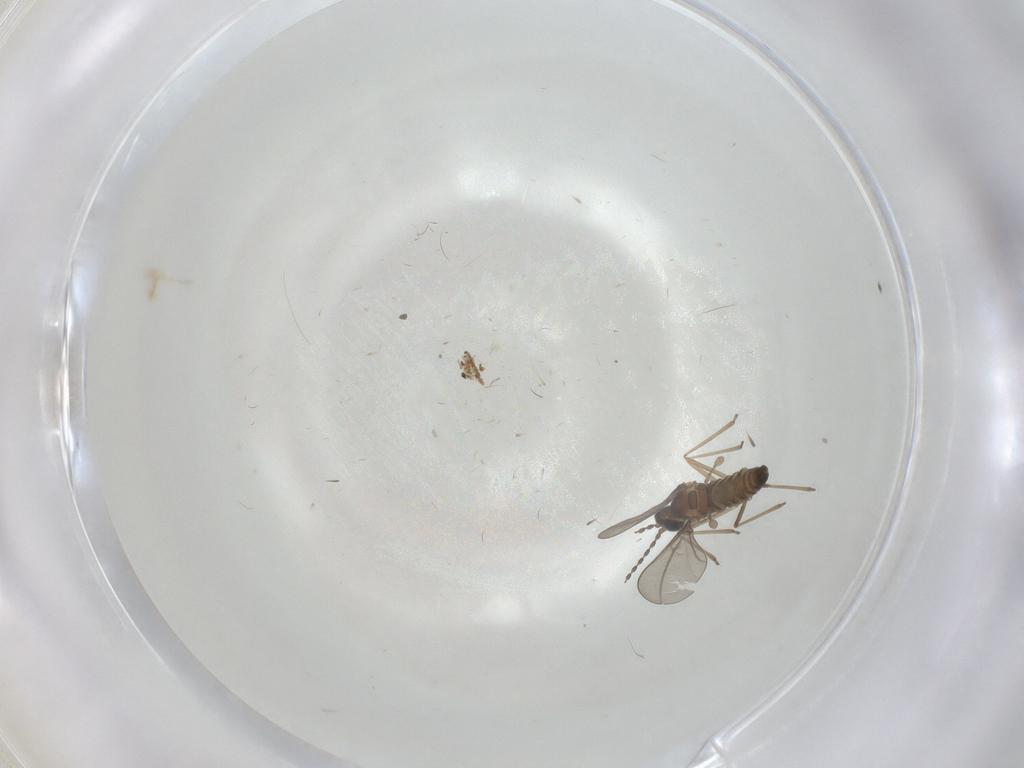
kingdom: Animalia
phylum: Arthropoda
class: Insecta
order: Diptera
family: Cecidomyiidae
